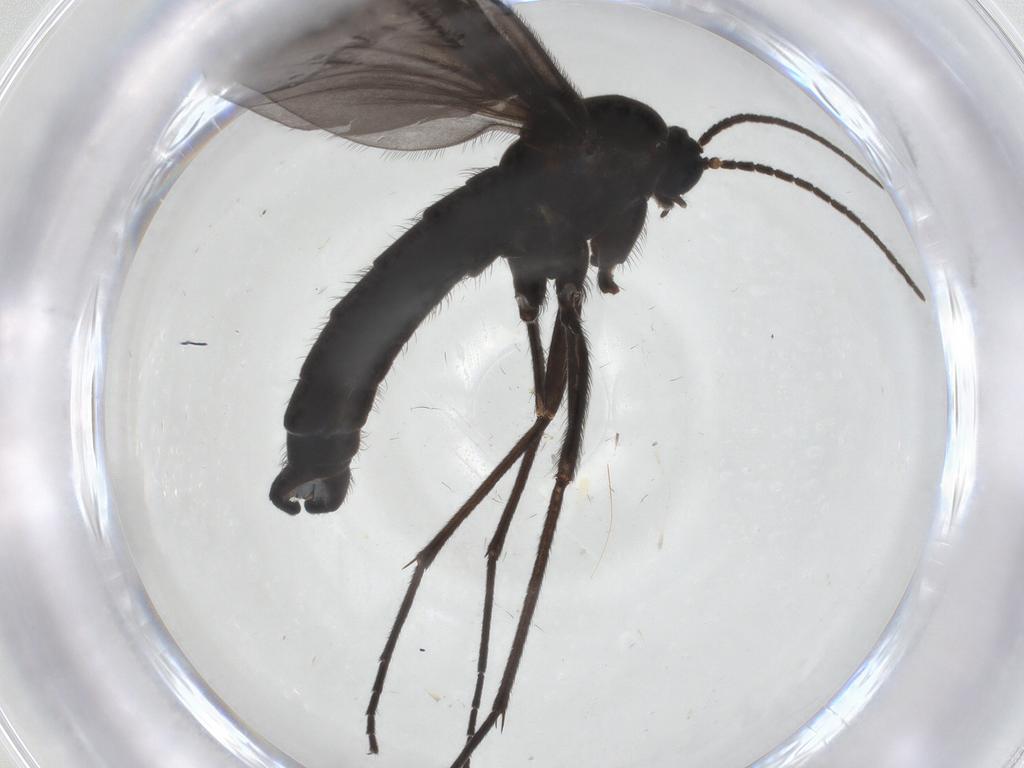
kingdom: Animalia
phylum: Arthropoda
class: Insecta
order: Diptera
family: Sciaridae
